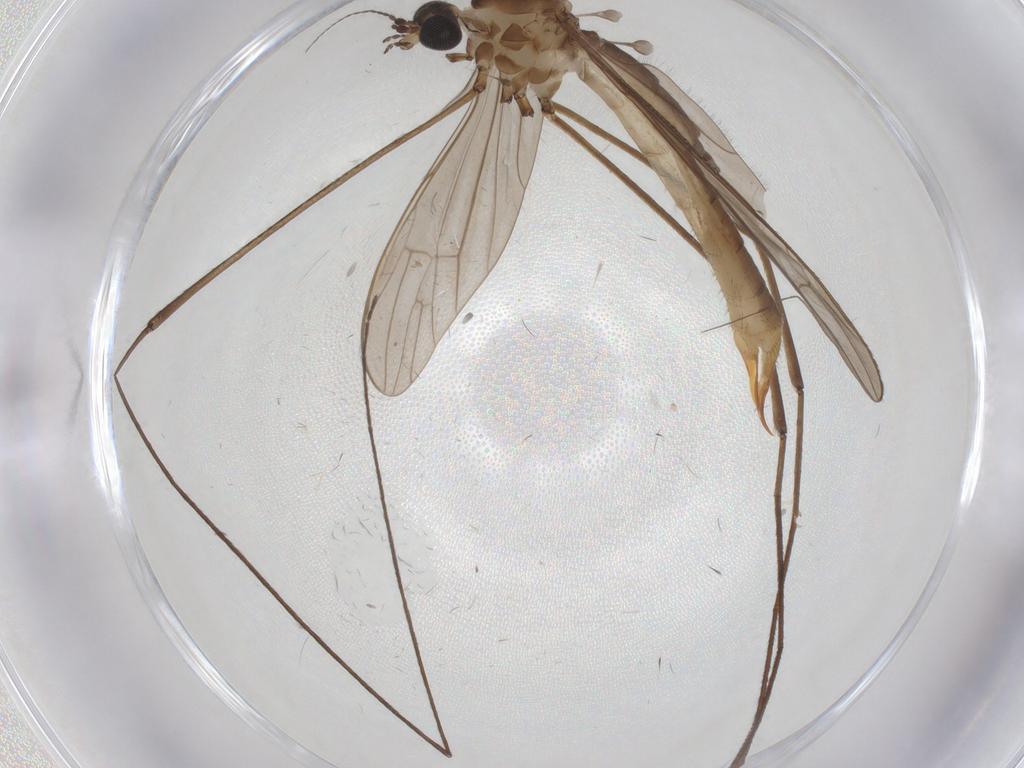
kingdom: Animalia
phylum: Arthropoda
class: Insecta
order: Diptera
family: Limoniidae
